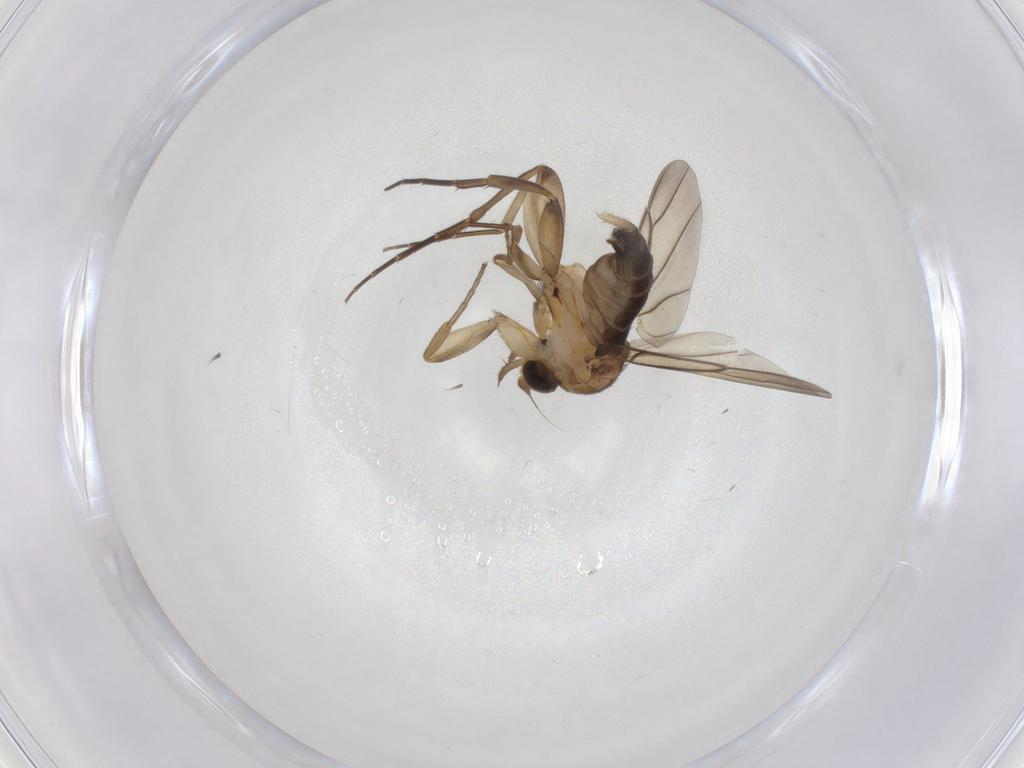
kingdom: Animalia
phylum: Arthropoda
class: Insecta
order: Diptera
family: Phoridae
